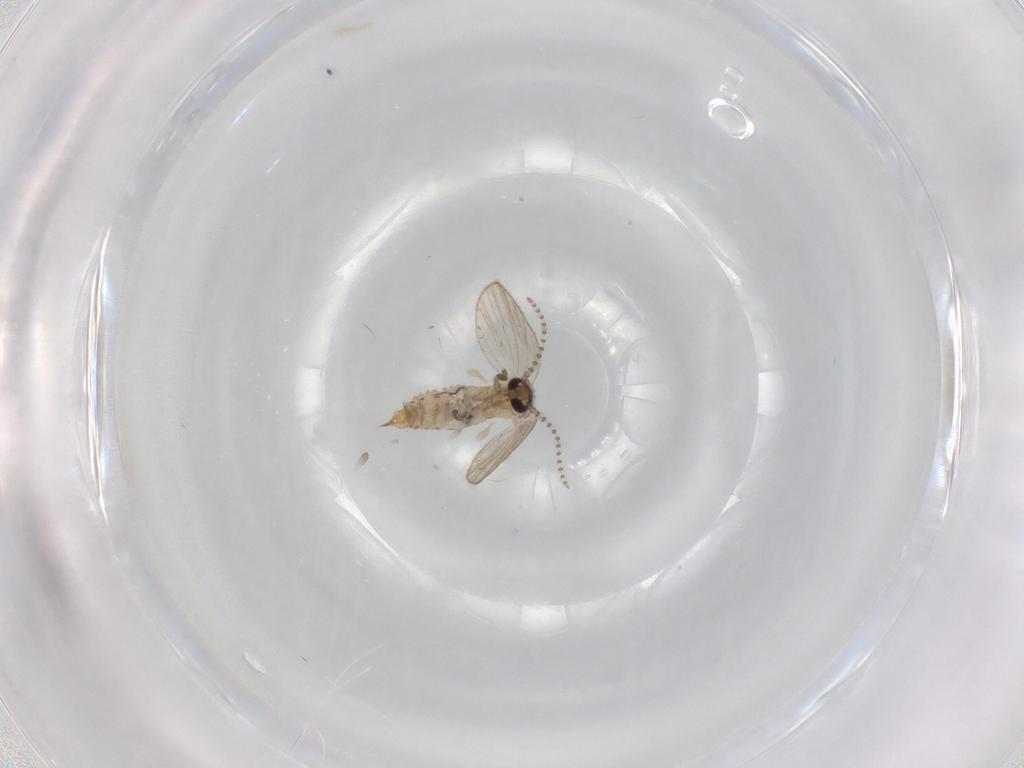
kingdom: Animalia
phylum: Arthropoda
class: Insecta
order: Diptera
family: Psychodidae
